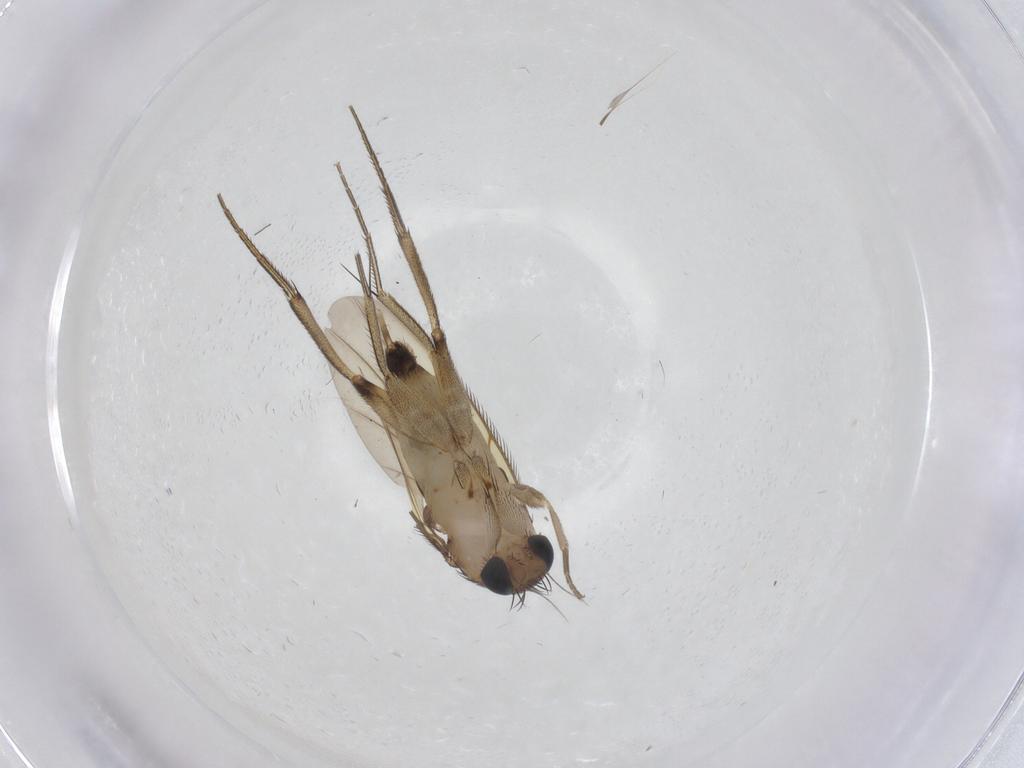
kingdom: Animalia
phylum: Arthropoda
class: Insecta
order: Diptera
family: Phoridae
